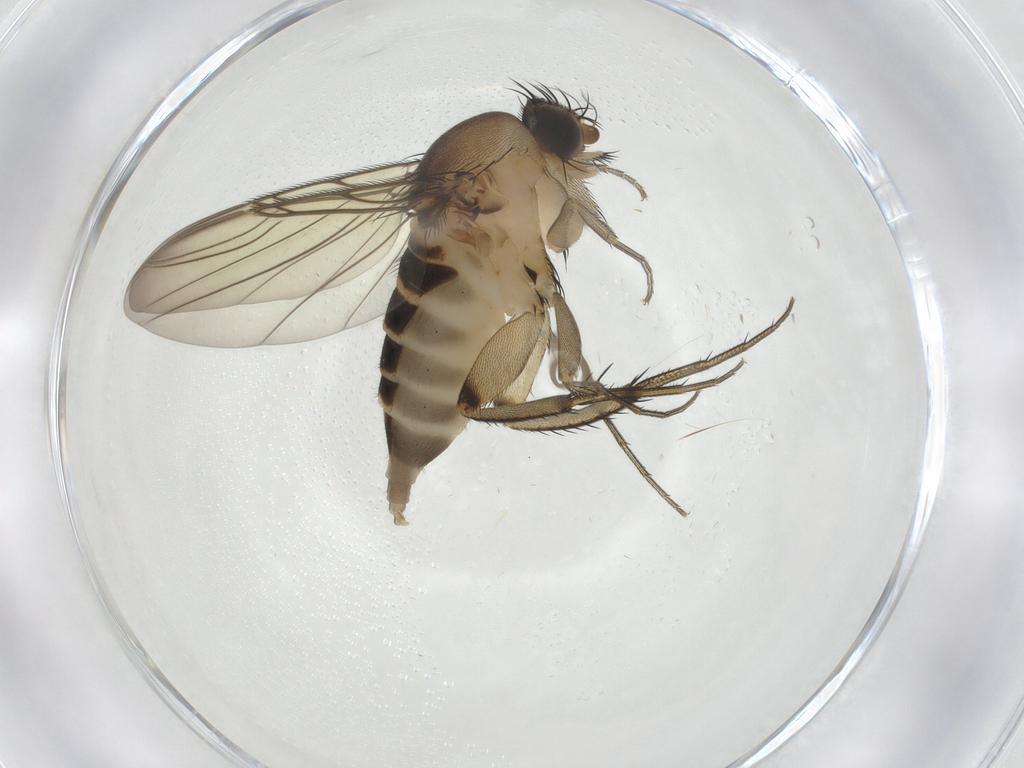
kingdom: Animalia
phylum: Arthropoda
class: Insecta
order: Diptera
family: Phoridae
